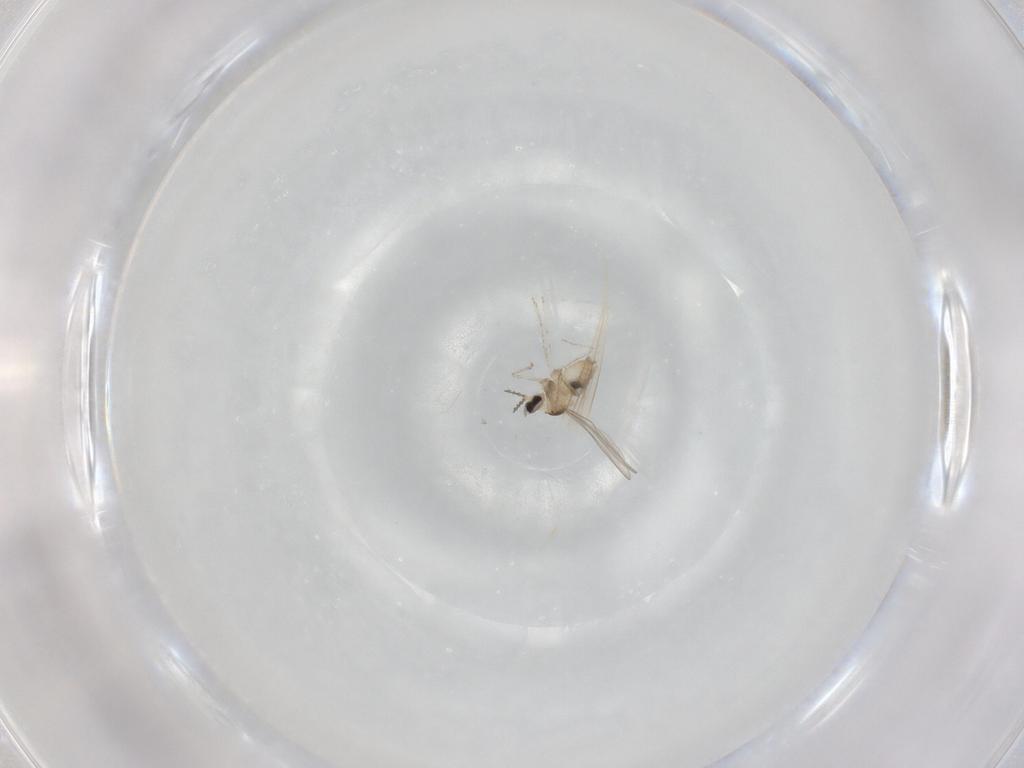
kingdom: Animalia
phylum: Arthropoda
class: Insecta
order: Diptera
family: Cecidomyiidae
